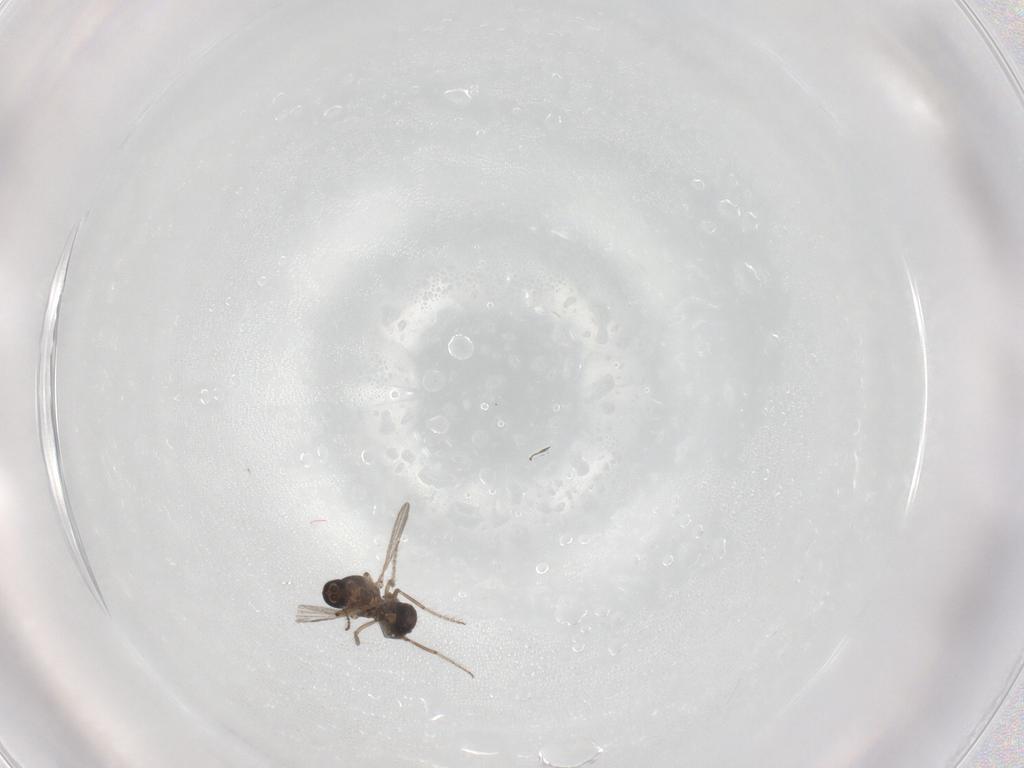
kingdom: Animalia
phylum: Arthropoda
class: Insecta
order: Diptera
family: Ceratopogonidae
